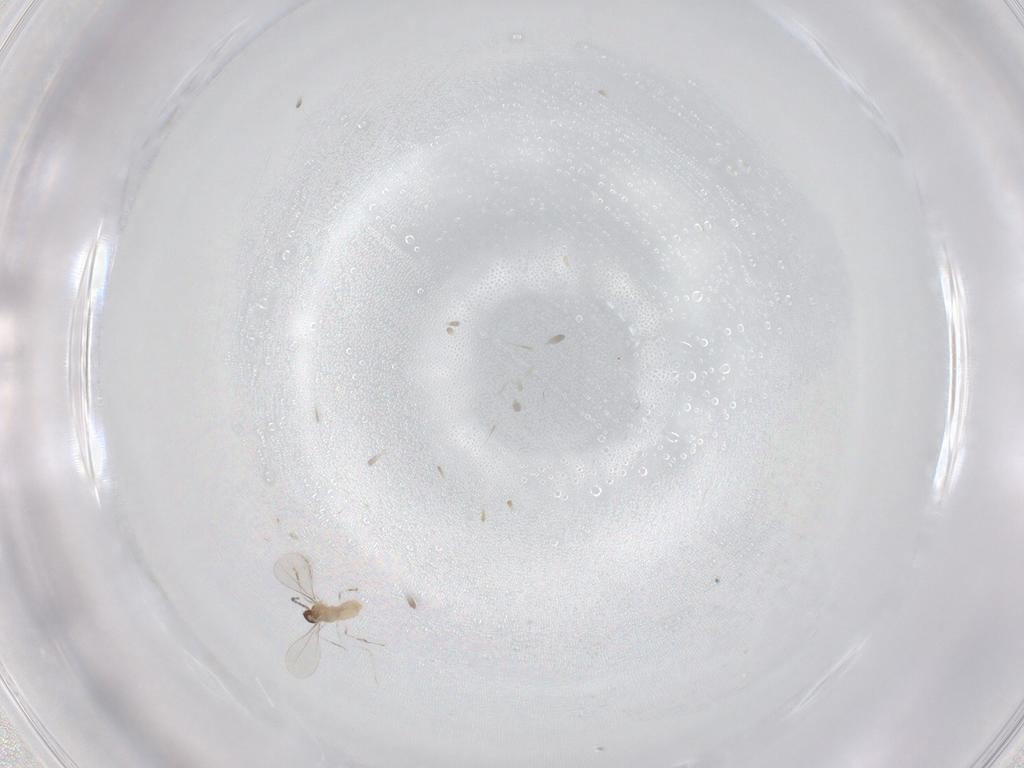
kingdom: Animalia
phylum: Arthropoda
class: Insecta
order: Diptera
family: Cecidomyiidae
